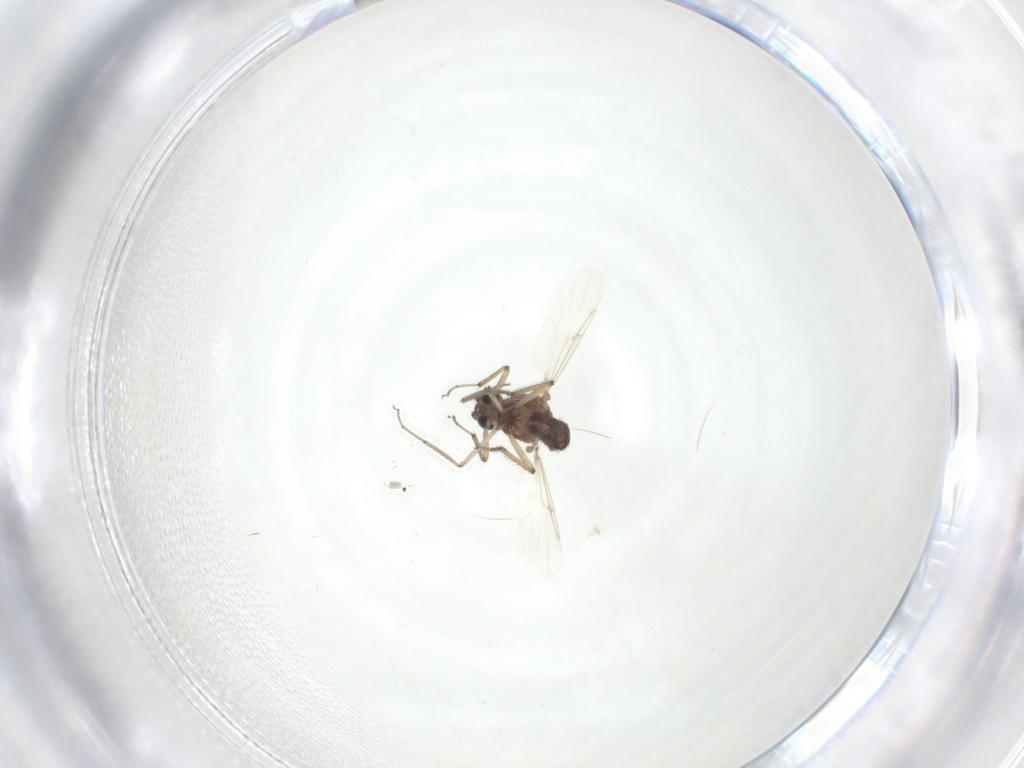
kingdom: Animalia
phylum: Arthropoda
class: Insecta
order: Diptera
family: Ceratopogonidae
